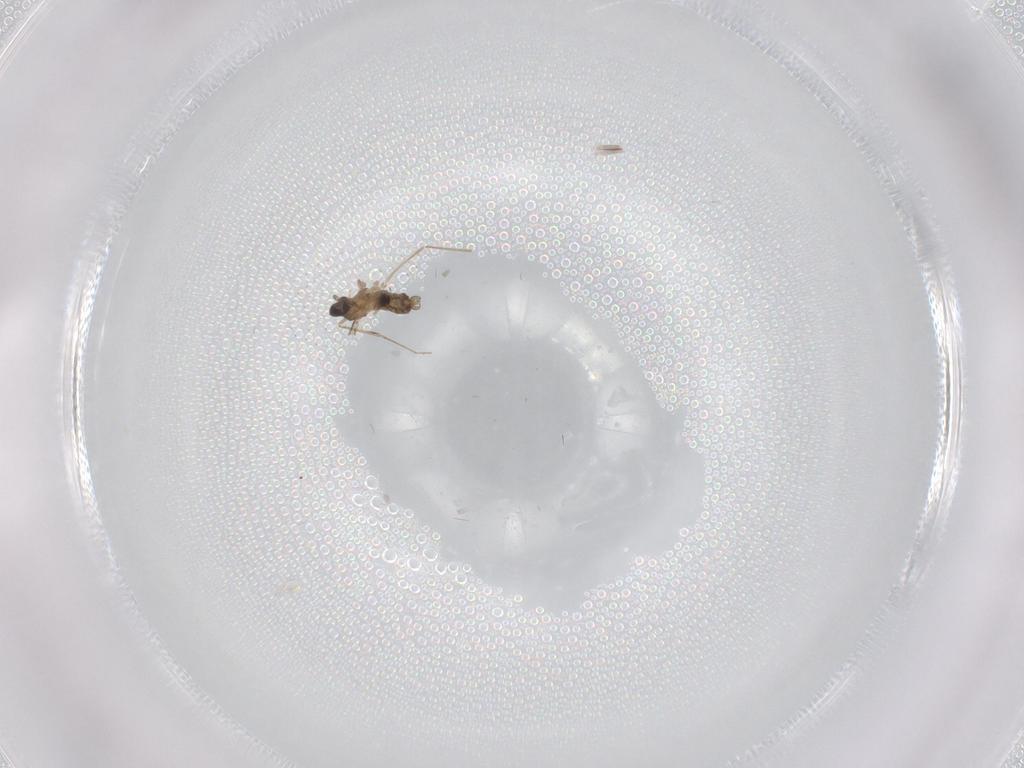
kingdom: Animalia
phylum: Arthropoda
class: Insecta
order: Diptera
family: Cecidomyiidae
